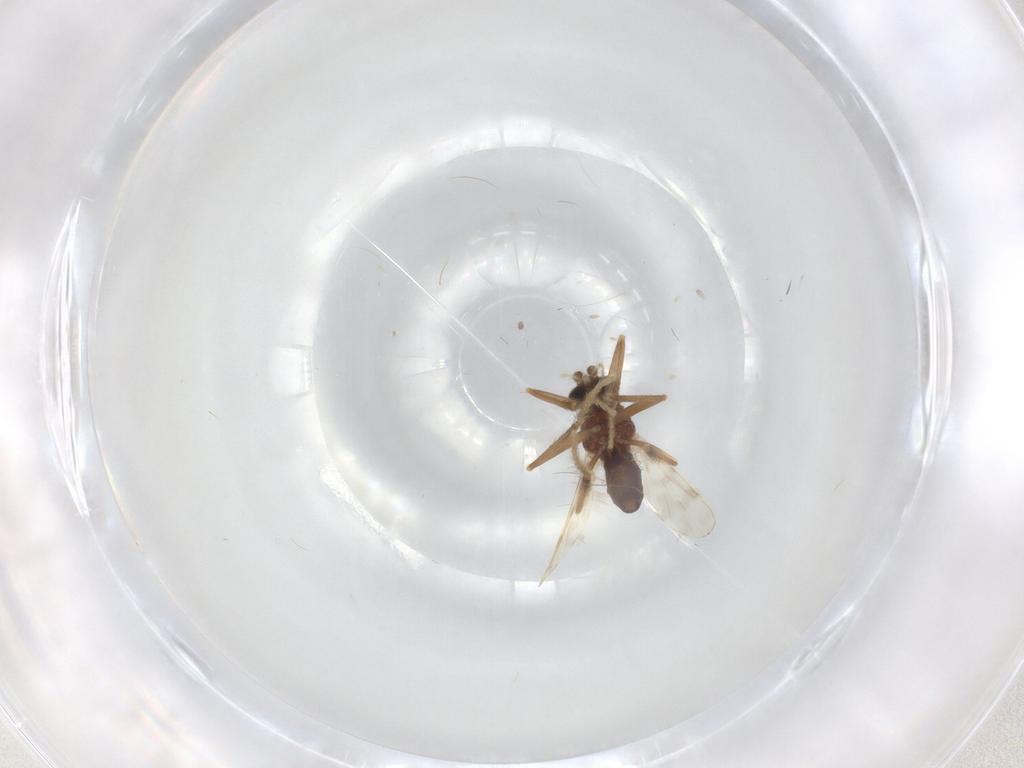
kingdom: Animalia
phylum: Arthropoda
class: Insecta
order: Diptera
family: Corethrellidae
